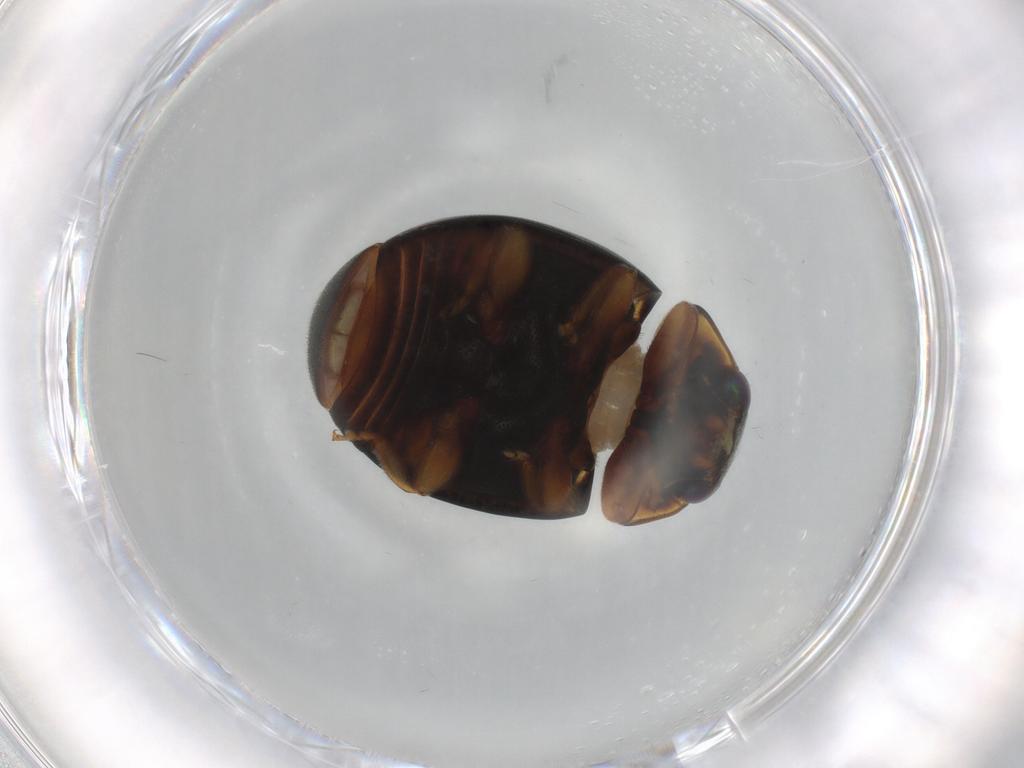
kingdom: Animalia
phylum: Arthropoda
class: Insecta
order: Coleoptera
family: Coccinellidae
